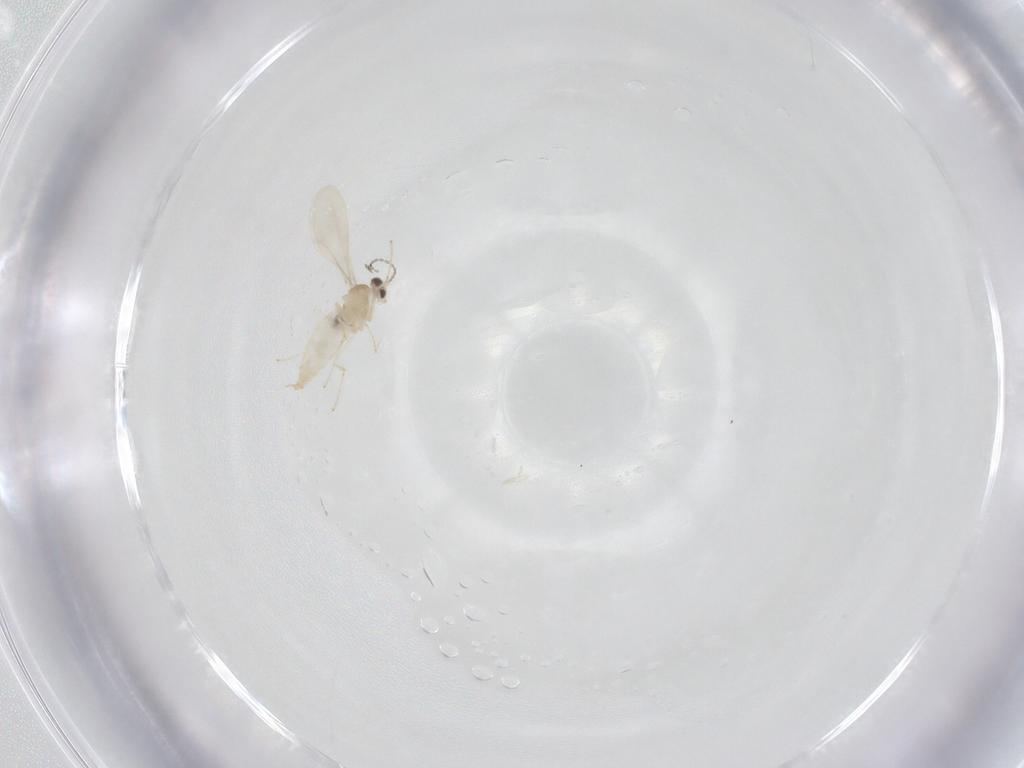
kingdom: Animalia
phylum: Arthropoda
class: Insecta
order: Diptera
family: Cecidomyiidae
